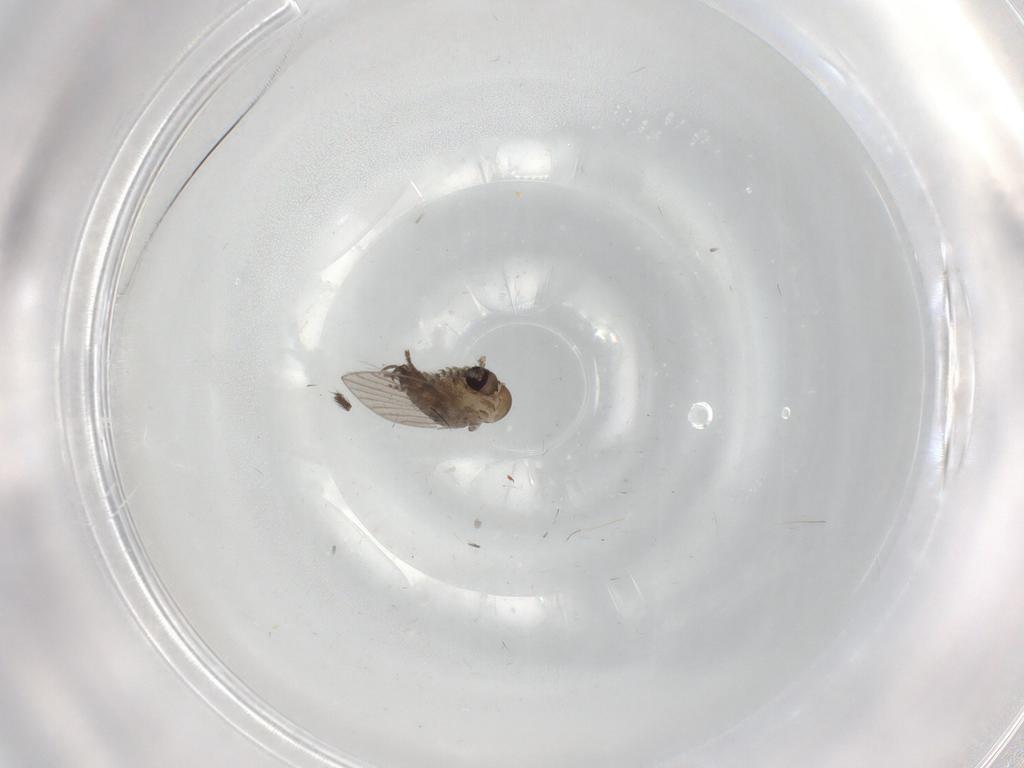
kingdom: Animalia
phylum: Arthropoda
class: Insecta
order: Diptera
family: Psychodidae
